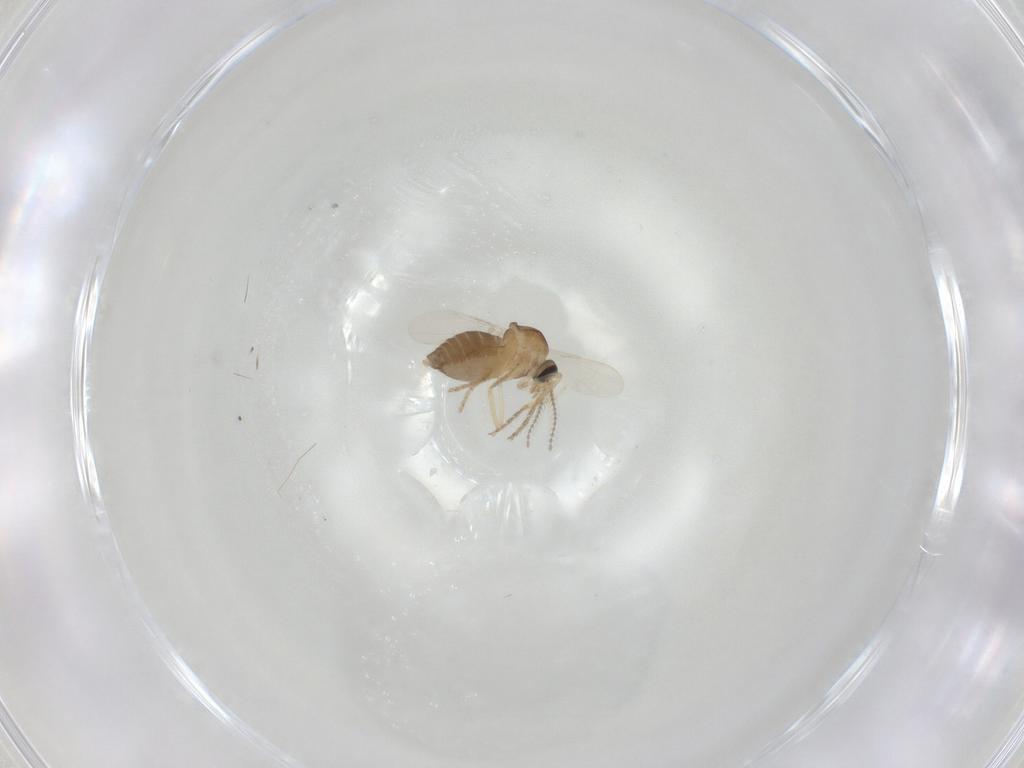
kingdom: Animalia
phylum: Arthropoda
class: Insecta
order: Diptera
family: Ceratopogonidae
